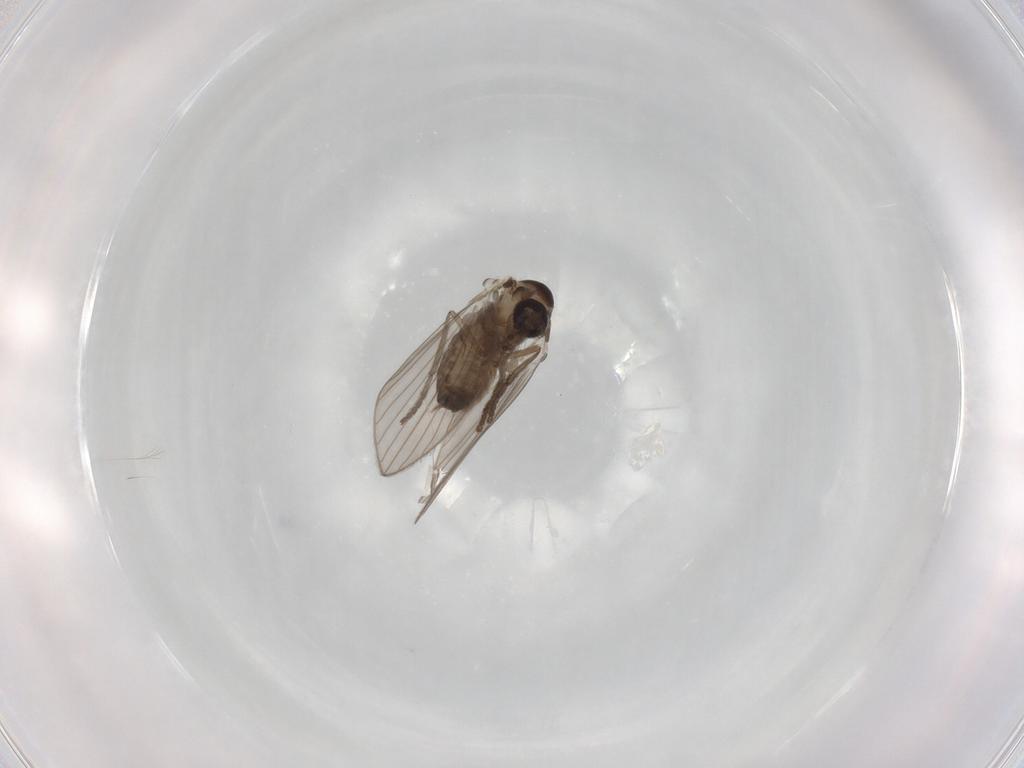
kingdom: Animalia
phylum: Arthropoda
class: Insecta
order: Diptera
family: Psychodidae
